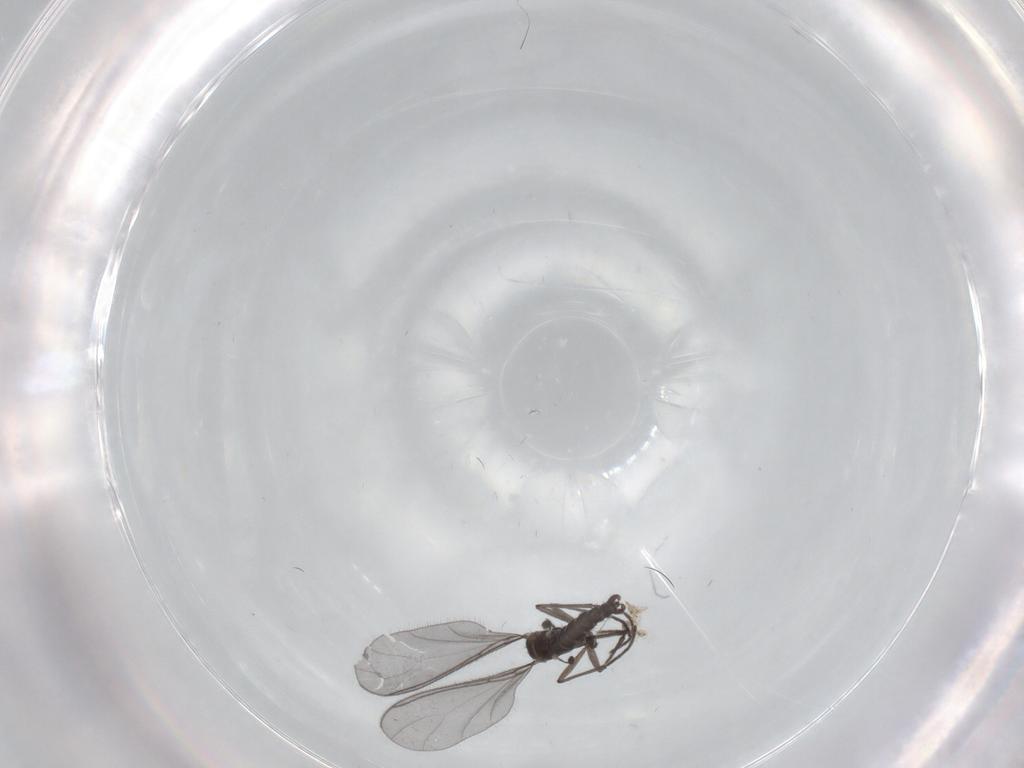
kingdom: Animalia
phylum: Arthropoda
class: Insecta
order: Diptera
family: Sciaridae
